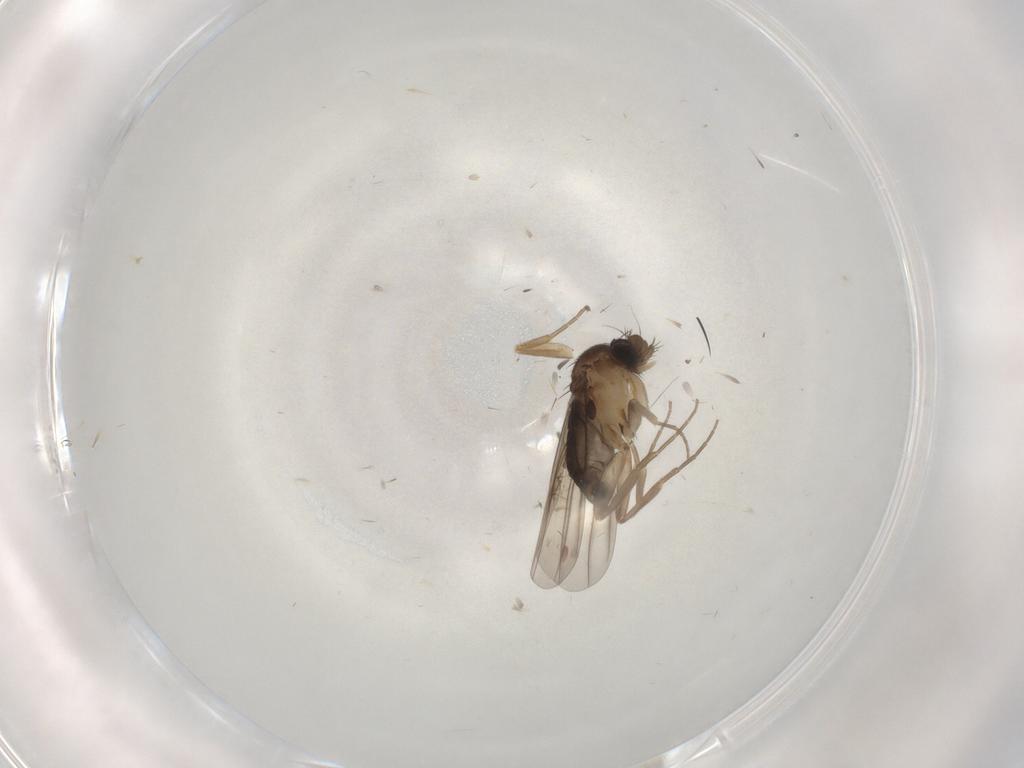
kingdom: Animalia
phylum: Arthropoda
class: Insecta
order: Diptera
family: Phoridae
